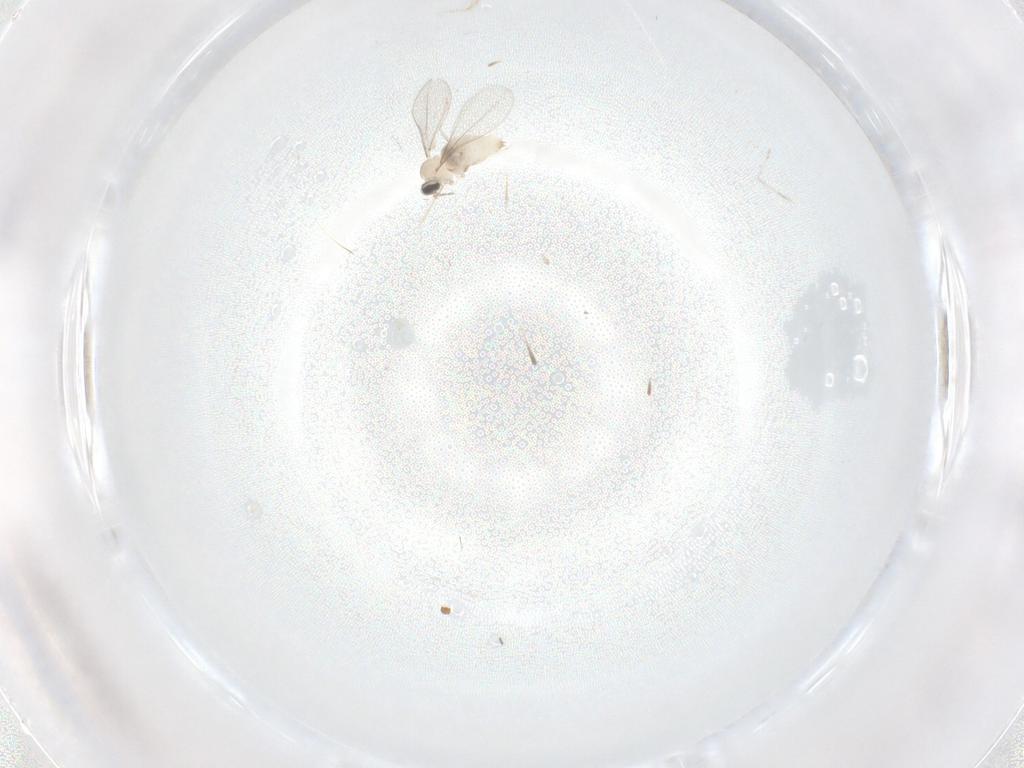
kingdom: Animalia
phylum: Arthropoda
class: Insecta
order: Diptera
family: Cecidomyiidae
